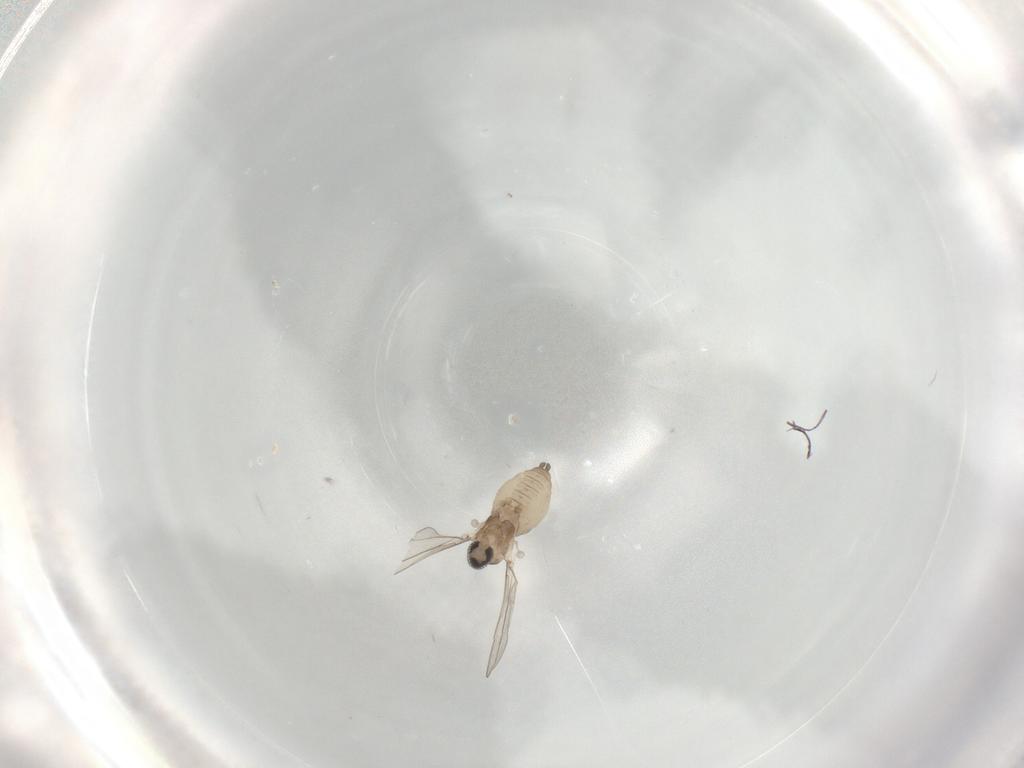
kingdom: Animalia
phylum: Arthropoda
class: Insecta
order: Diptera
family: Cecidomyiidae
